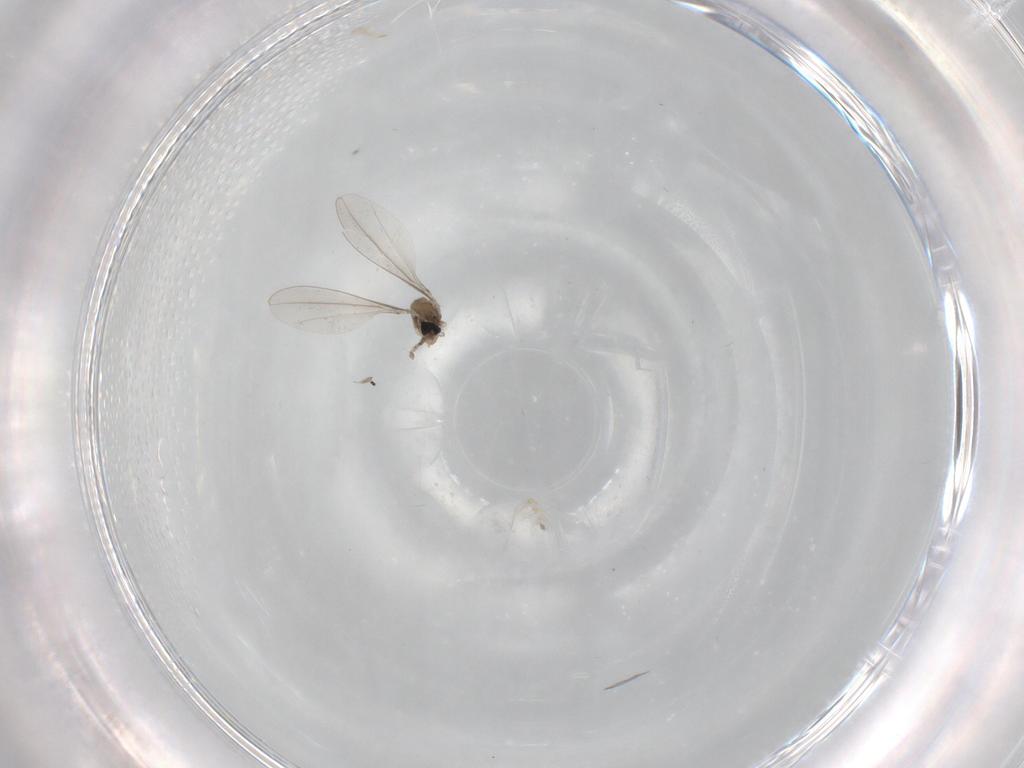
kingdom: Animalia
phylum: Arthropoda
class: Insecta
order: Diptera
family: Cecidomyiidae
